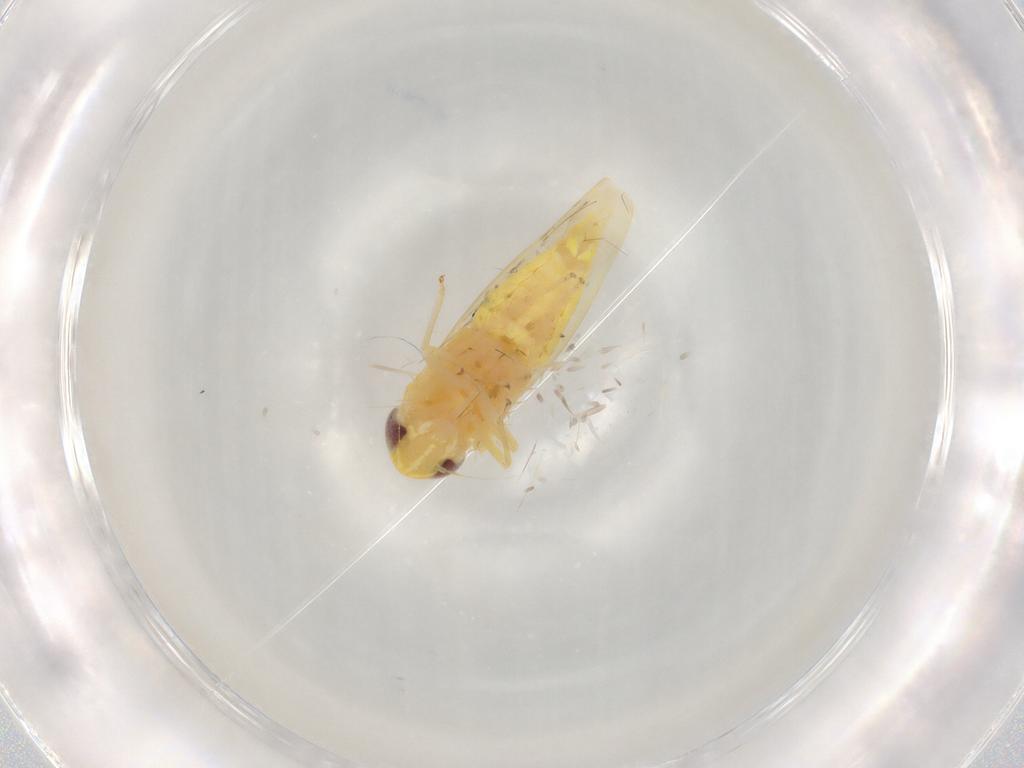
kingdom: Animalia
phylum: Arthropoda
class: Insecta
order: Hemiptera
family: Cicadellidae
